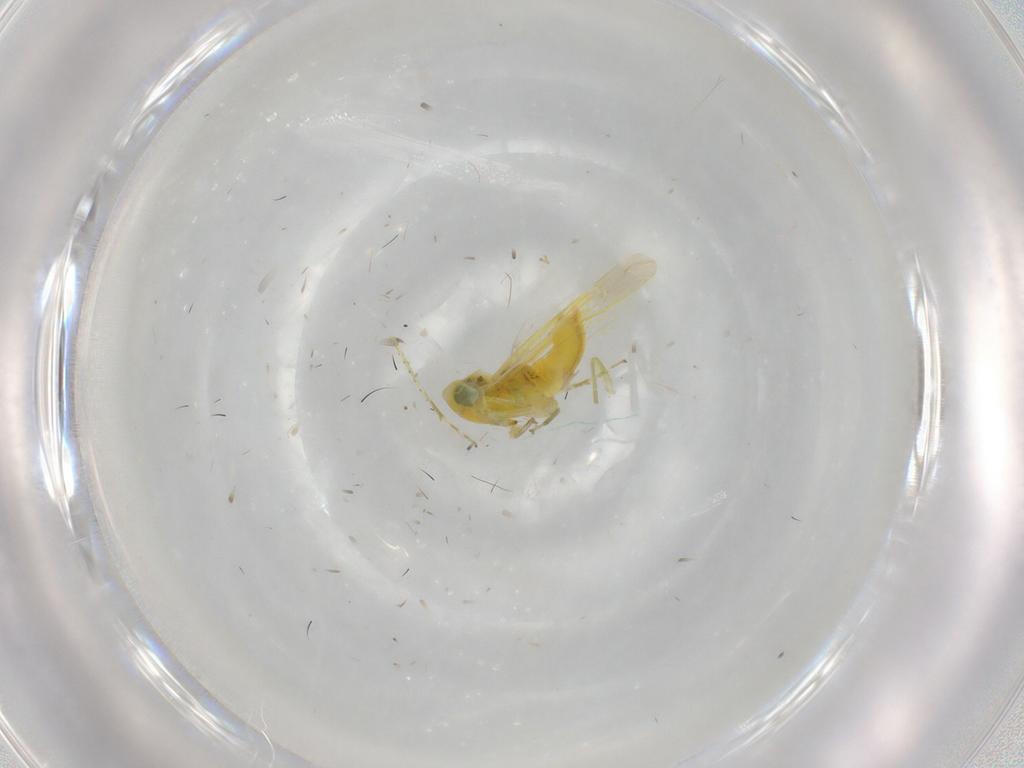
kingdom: Animalia
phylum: Arthropoda
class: Insecta
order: Hemiptera
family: Cicadellidae
